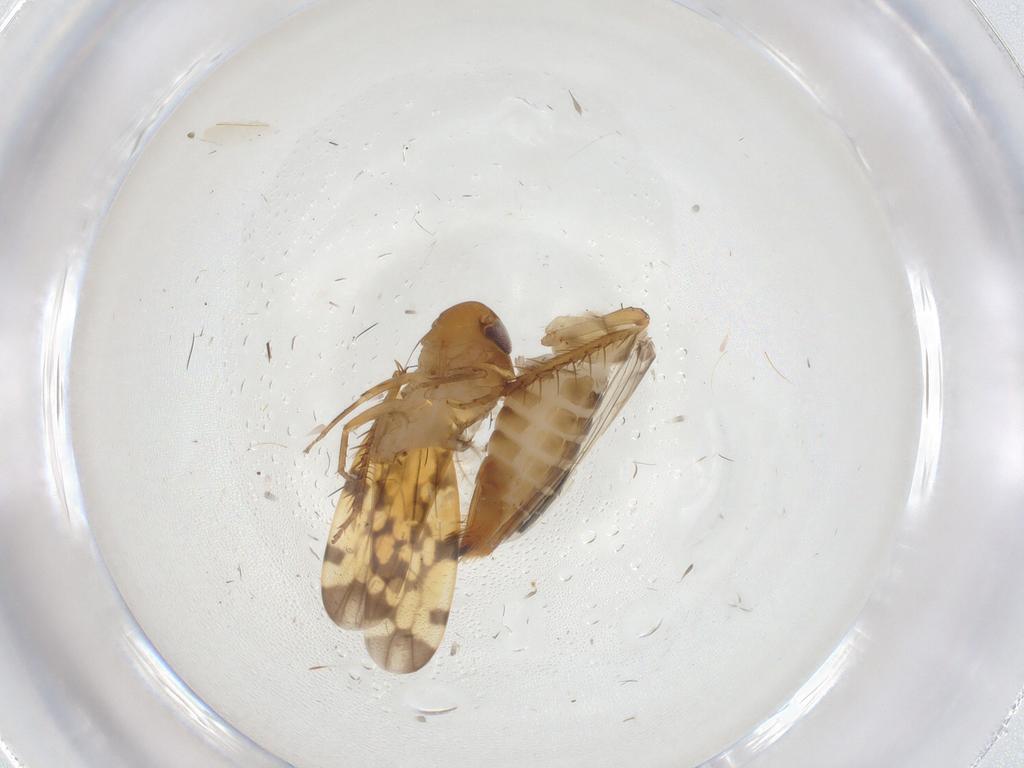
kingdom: Animalia
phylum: Arthropoda
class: Insecta
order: Hemiptera
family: Cicadellidae
